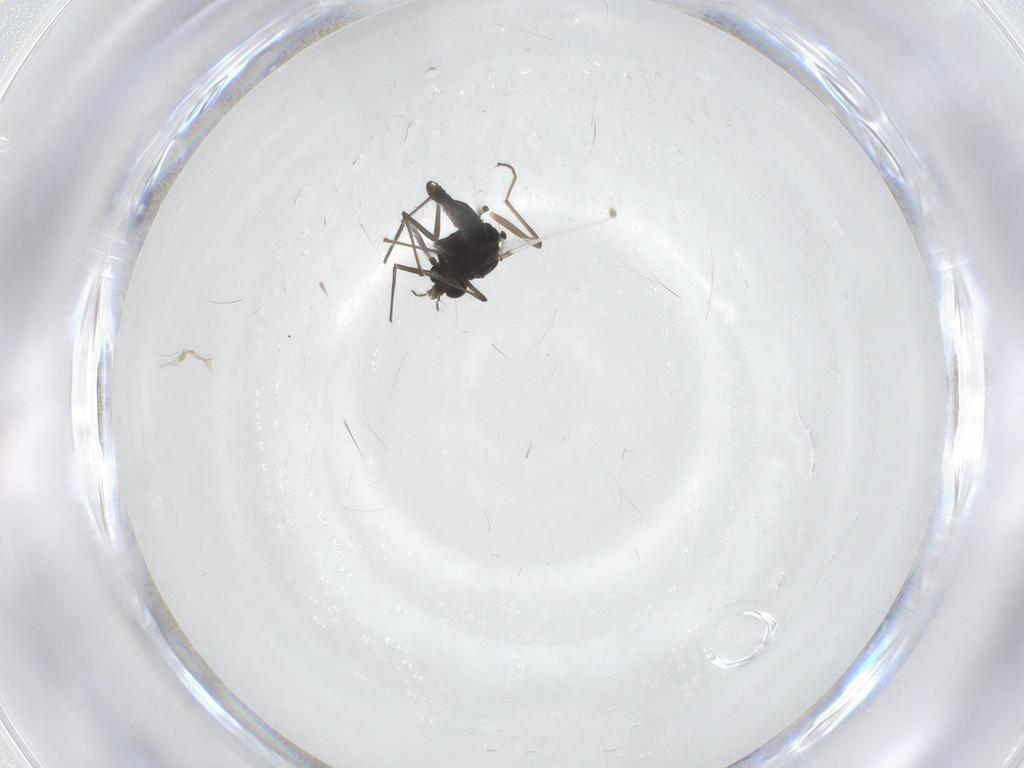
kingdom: Animalia
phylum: Arthropoda
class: Insecta
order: Diptera
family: Chironomidae
